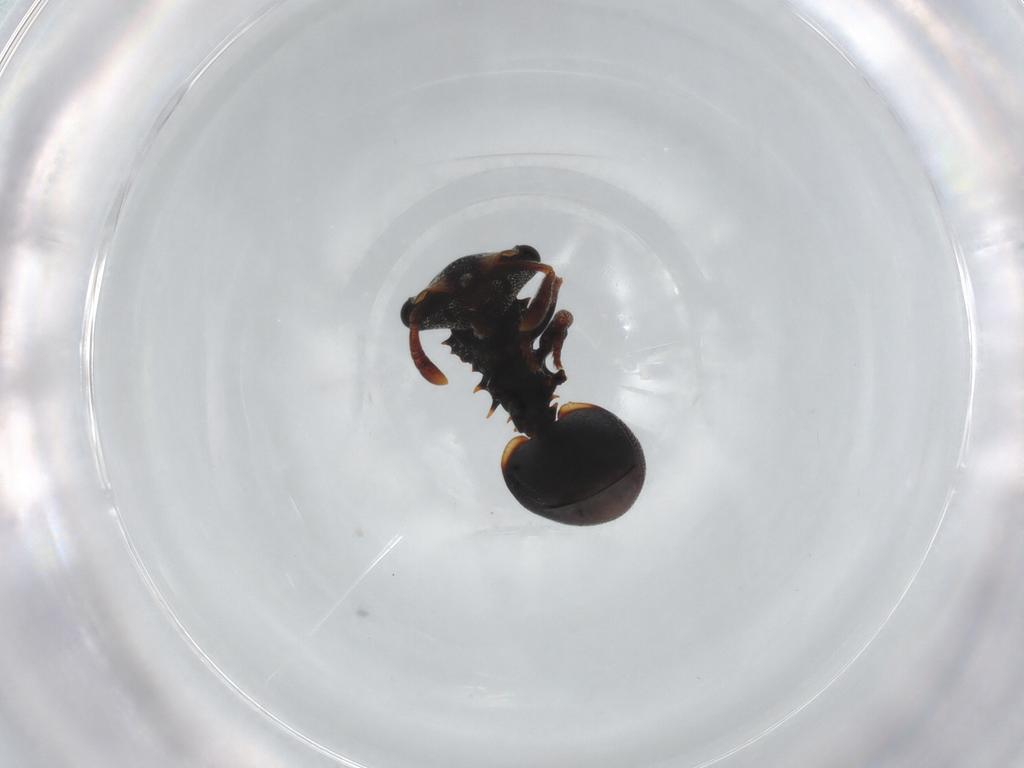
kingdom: Animalia
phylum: Arthropoda
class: Insecta
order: Hymenoptera
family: Formicidae
